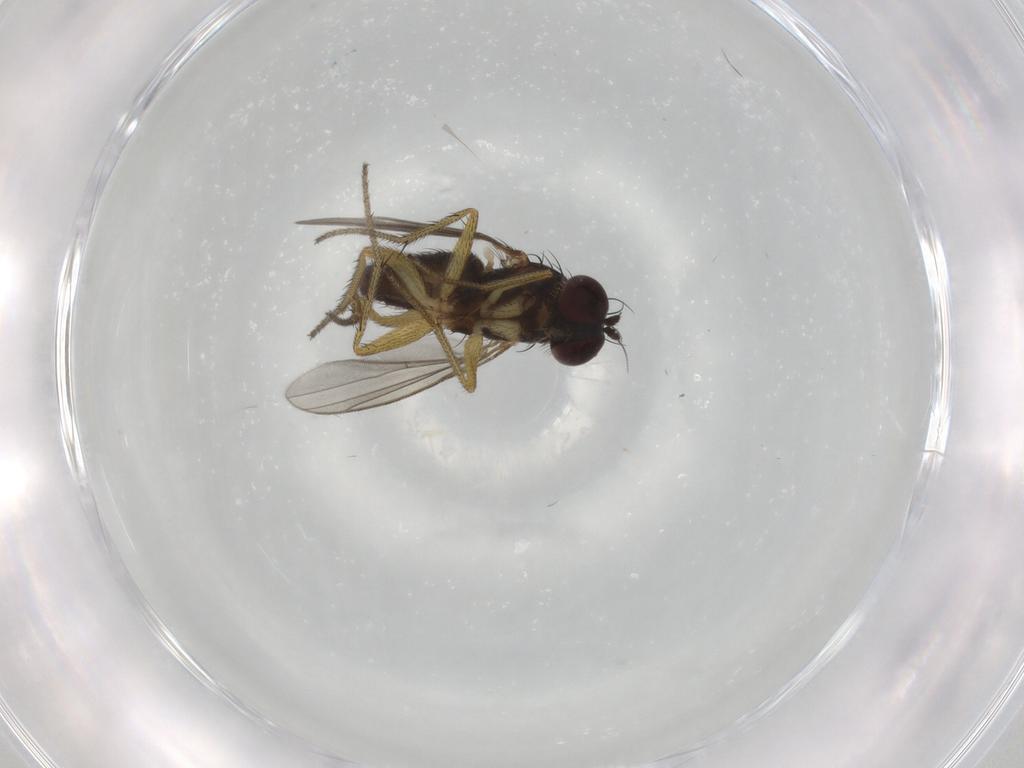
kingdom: Animalia
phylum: Arthropoda
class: Insecta
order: Diptera
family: Dolichopodidae
